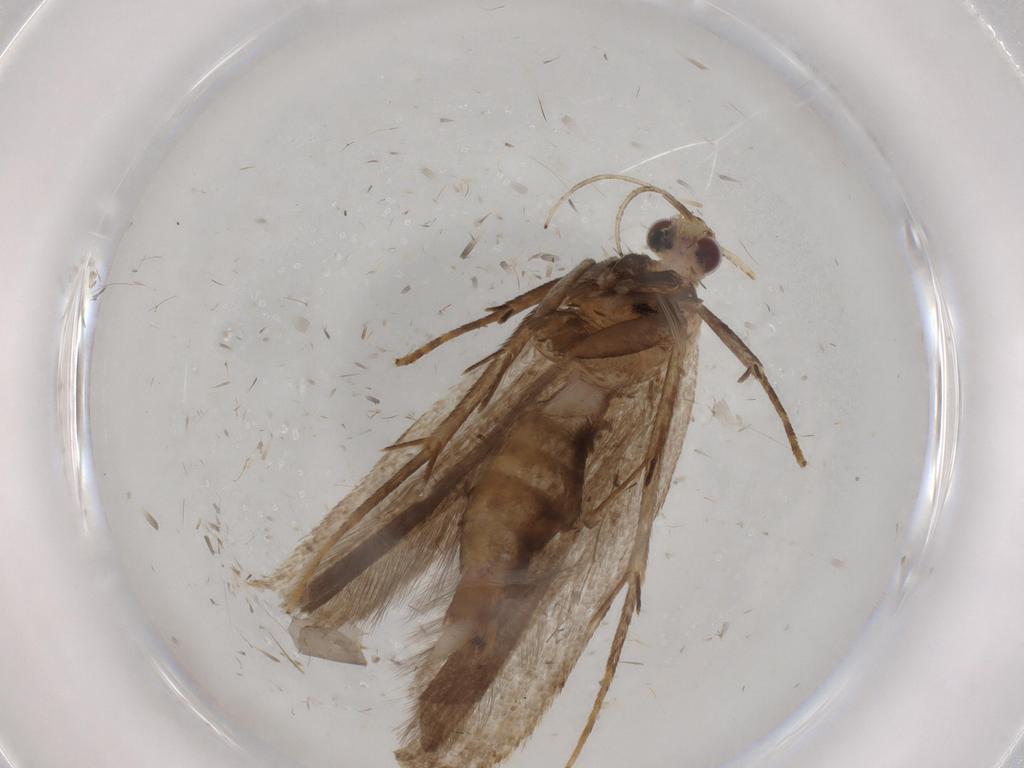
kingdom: Animalia
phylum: Arthropoda
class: Insecta
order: Lepidoptera
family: Gelechiidae
